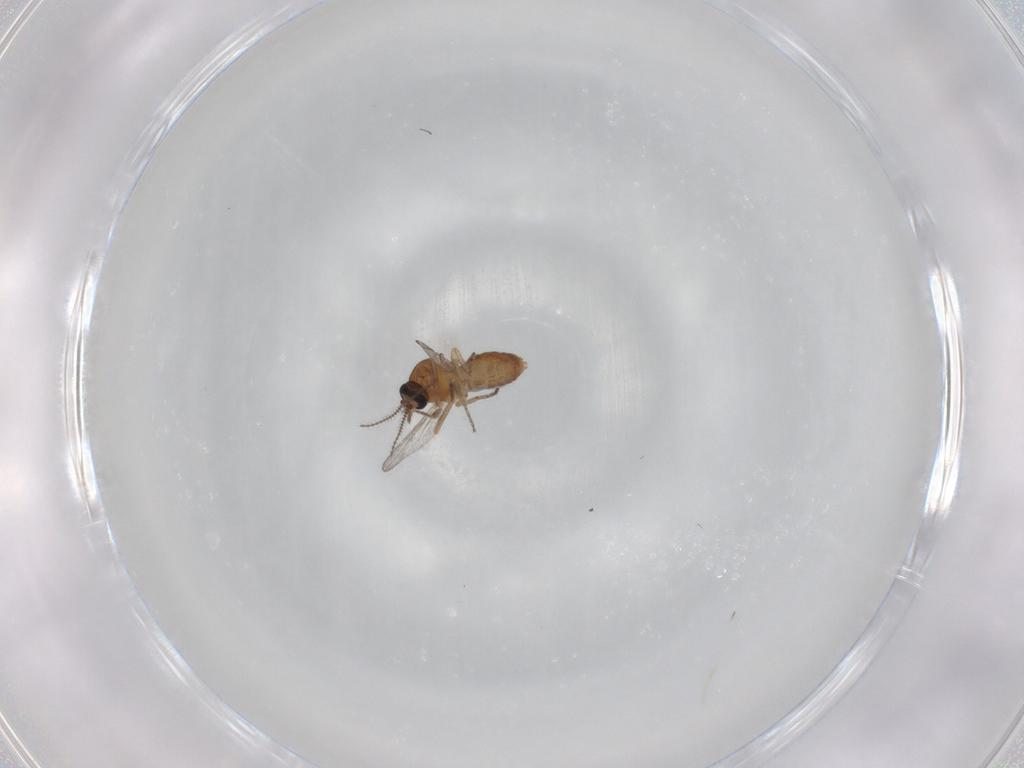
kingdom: Animalia
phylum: Arthropoda
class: Insecta
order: Diptera
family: Ceratopogonidae
